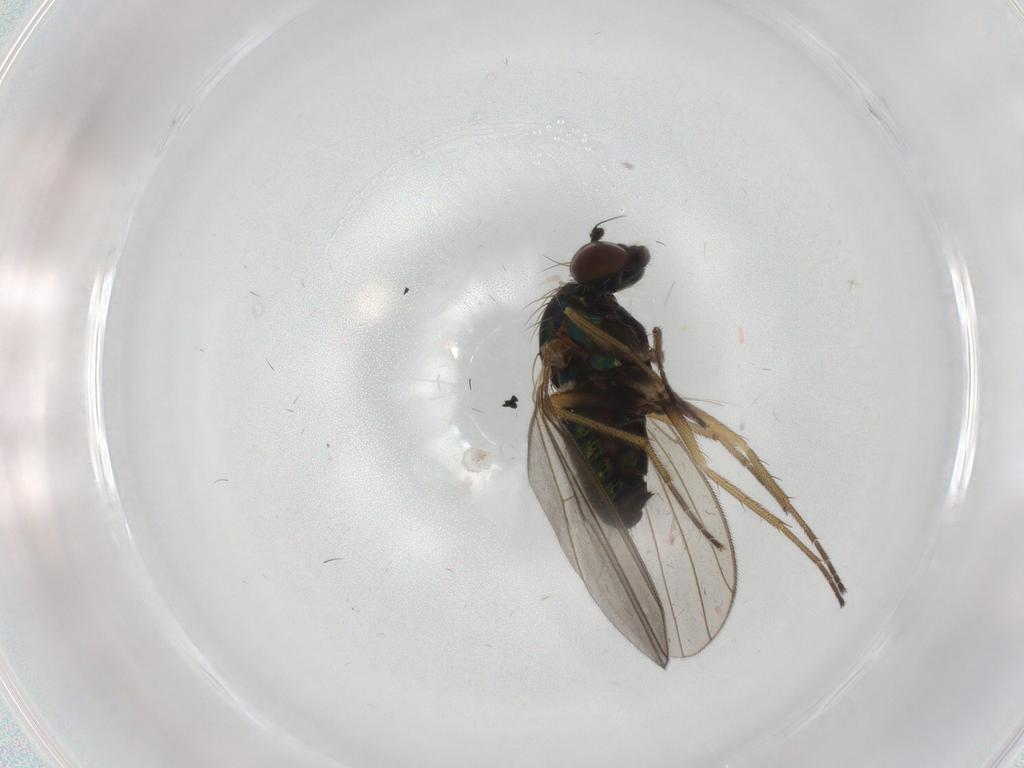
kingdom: Animalia
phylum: Arthropoda
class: Insecta
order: Diptera
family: Cecidomyiidae
